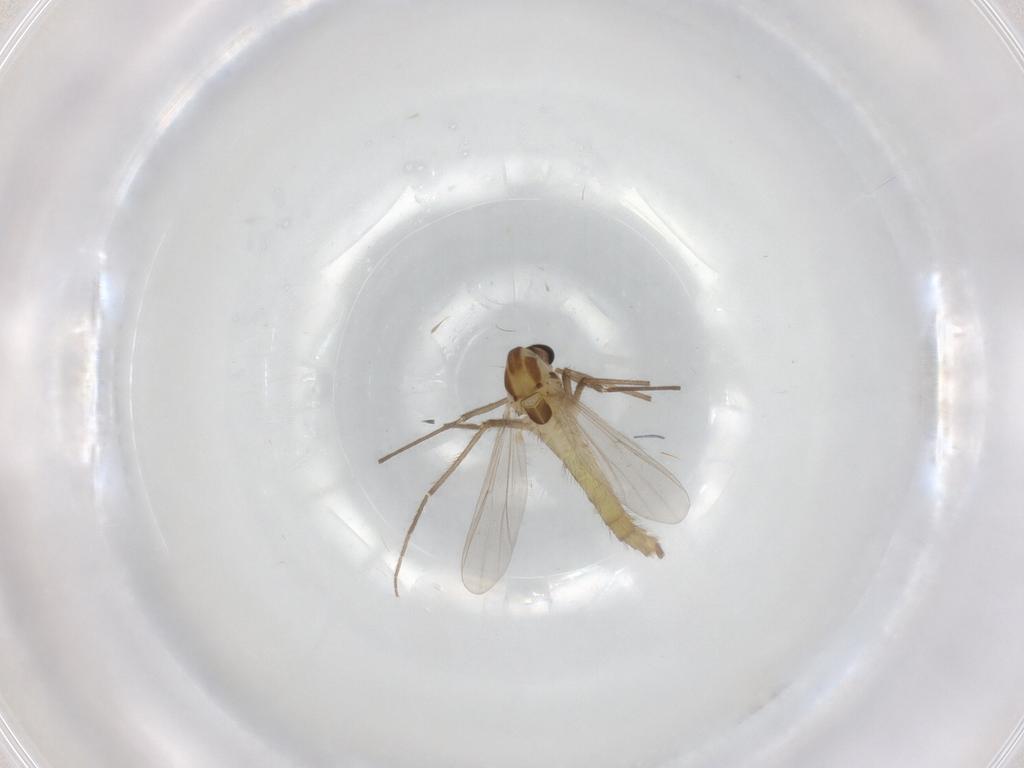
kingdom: Animalia
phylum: Arthropoda
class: Insecta
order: Diptera
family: Chironomidae
